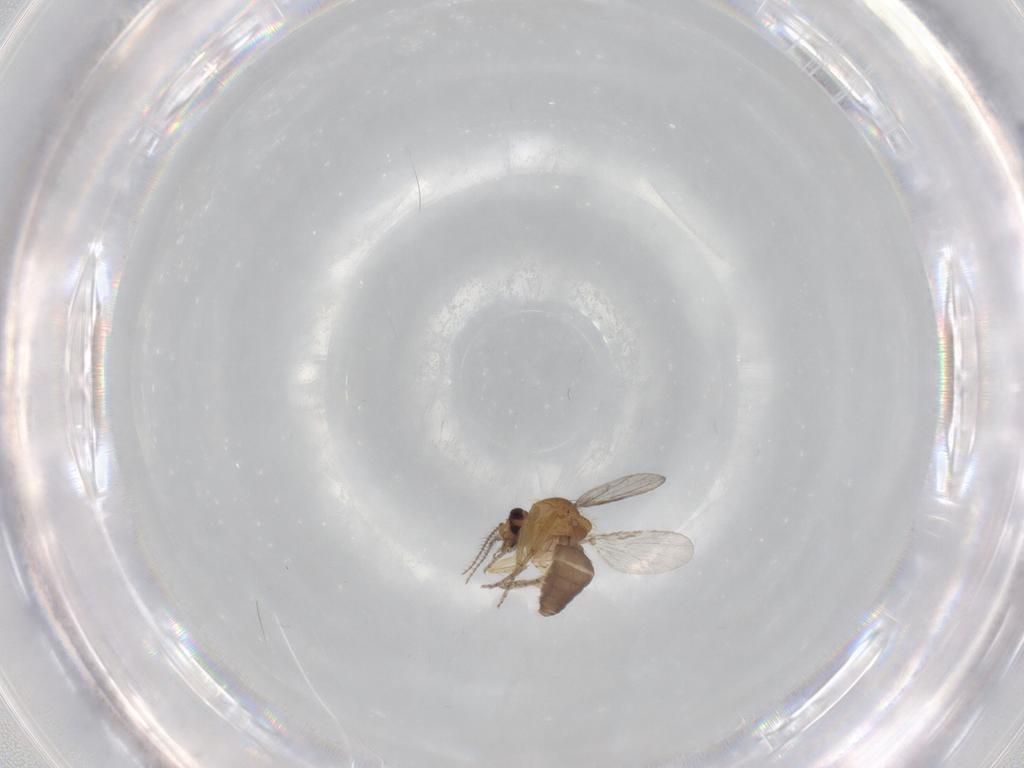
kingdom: Animalia
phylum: Arthropoda
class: Insecta
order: Diptera
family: Ceratopogonidae
